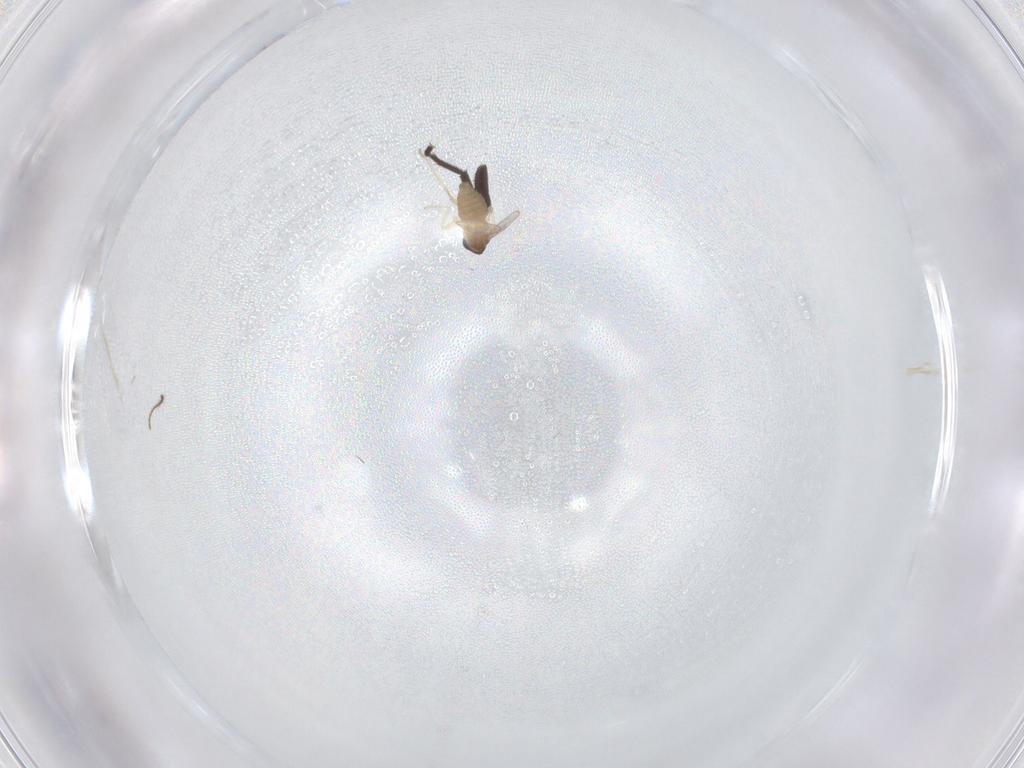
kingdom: Animalia
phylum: Arthropoda
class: Insecta
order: Diptera
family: Cecidomyiidae
